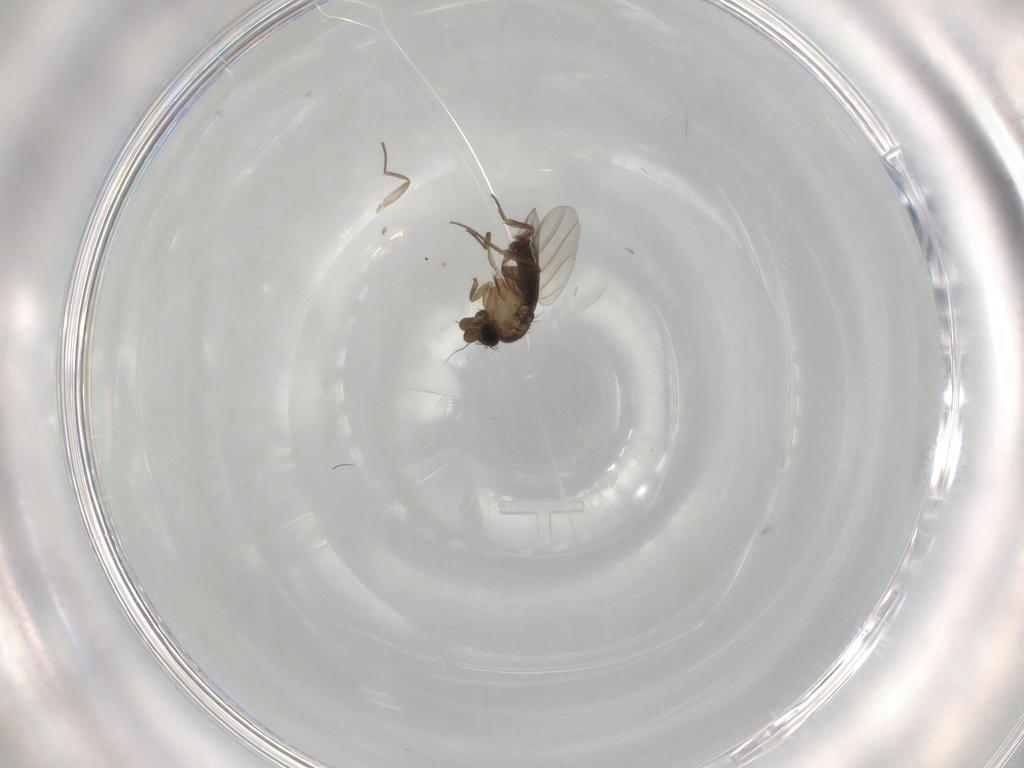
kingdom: Animalia
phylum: Arthropoda
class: Insecta
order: Diptera
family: Phoridae
